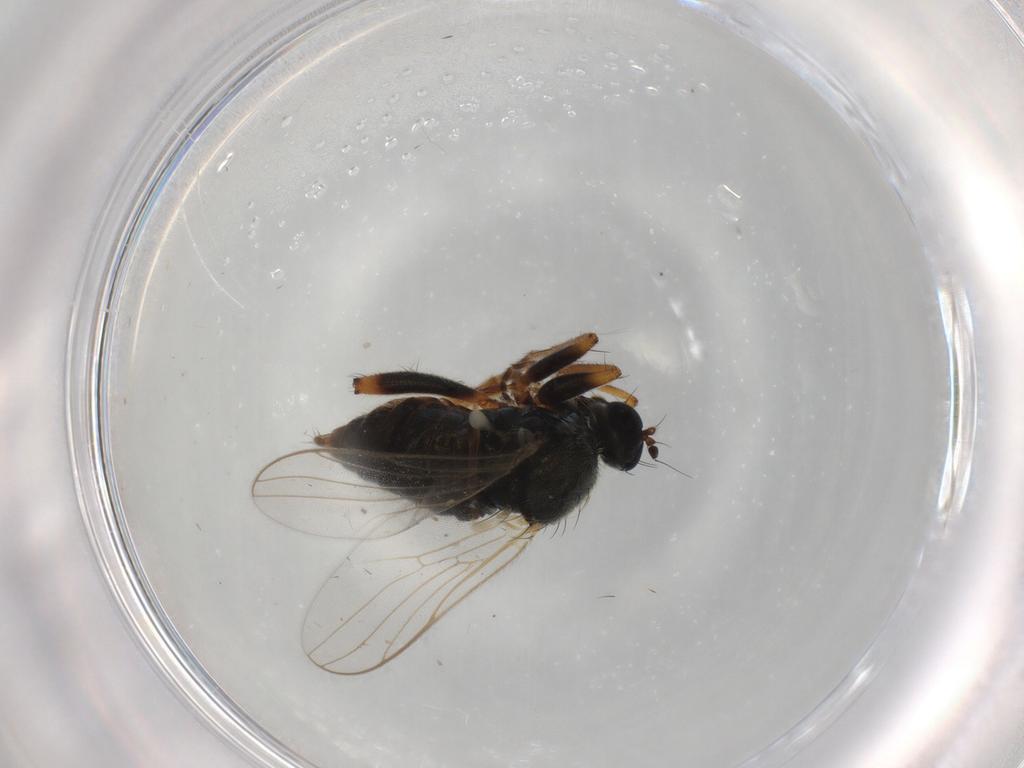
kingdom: Animalia
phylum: Arthropoda
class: Insecta
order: Diptera
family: Hybotidae
